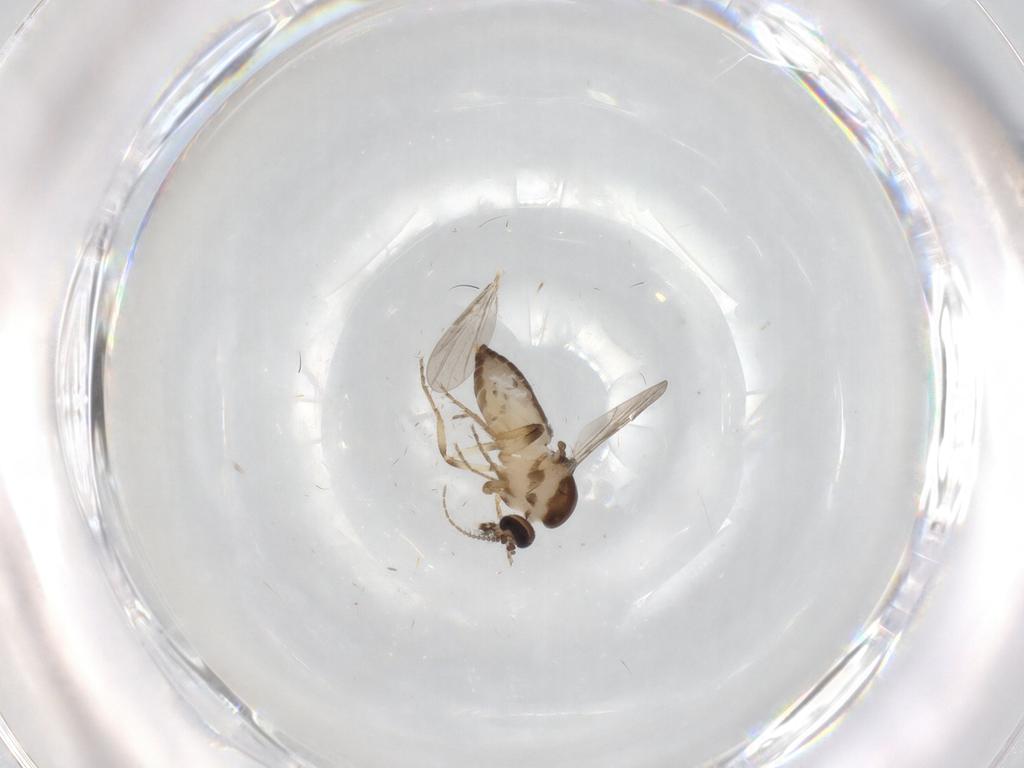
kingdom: Animalia
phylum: Arthropoda
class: Insecta
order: Diptera
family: Ceratopogonidae
